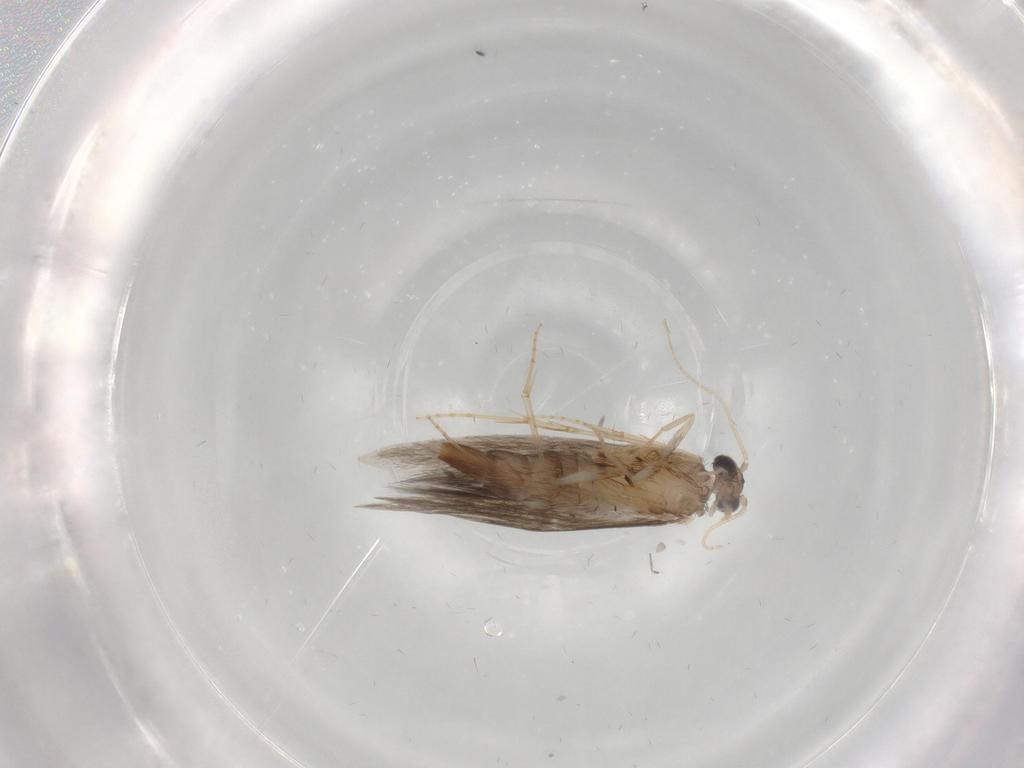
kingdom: Animalia
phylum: Arthropoda
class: Insecta
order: Trichoptera
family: Hydroptilidae
